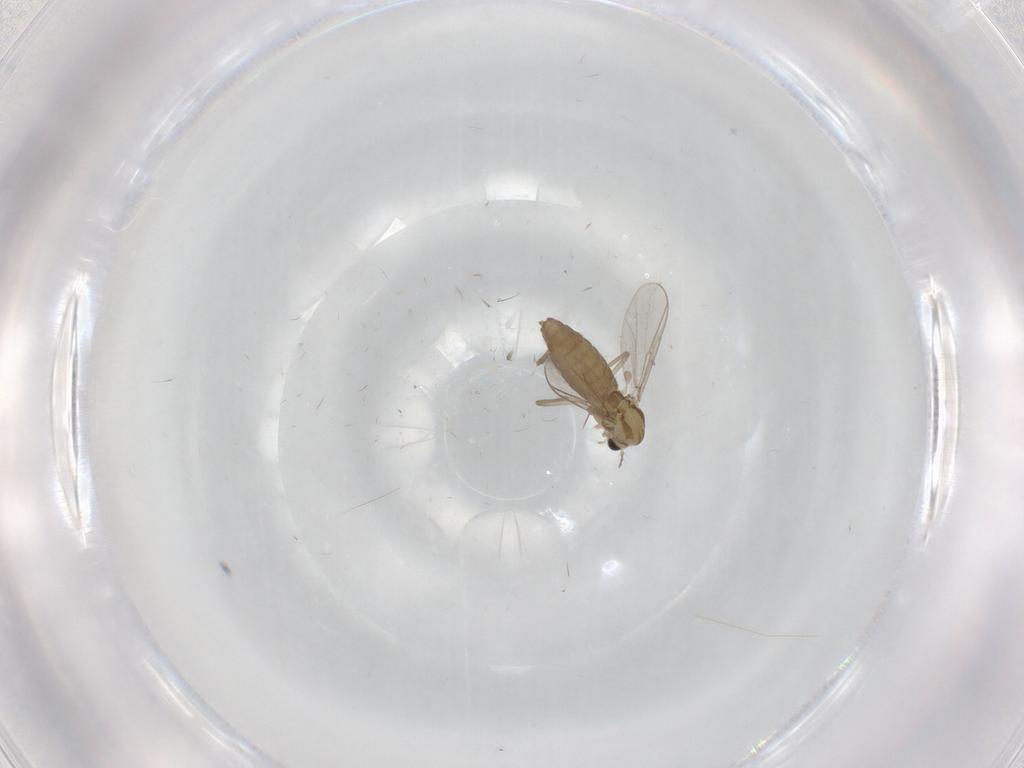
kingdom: Animalia
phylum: Arthropoda
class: Insecta
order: Diptera
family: Chironomidae
